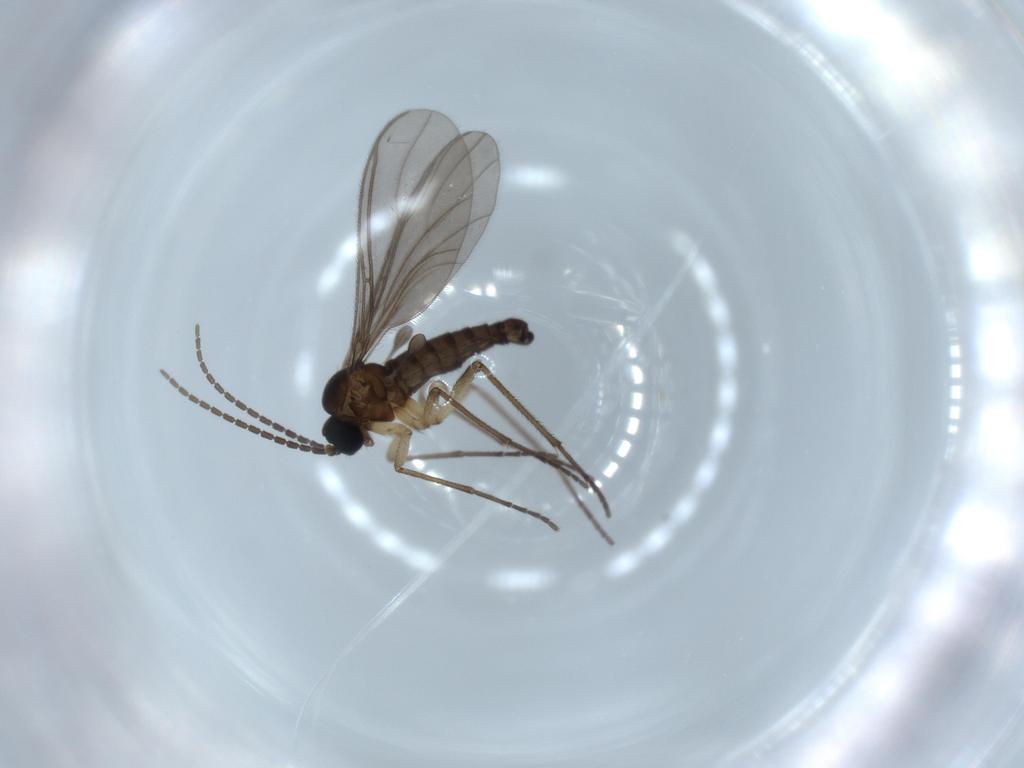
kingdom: Animalia
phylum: Arthropoda
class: Insecta
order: Diptera
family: Sciaridae
